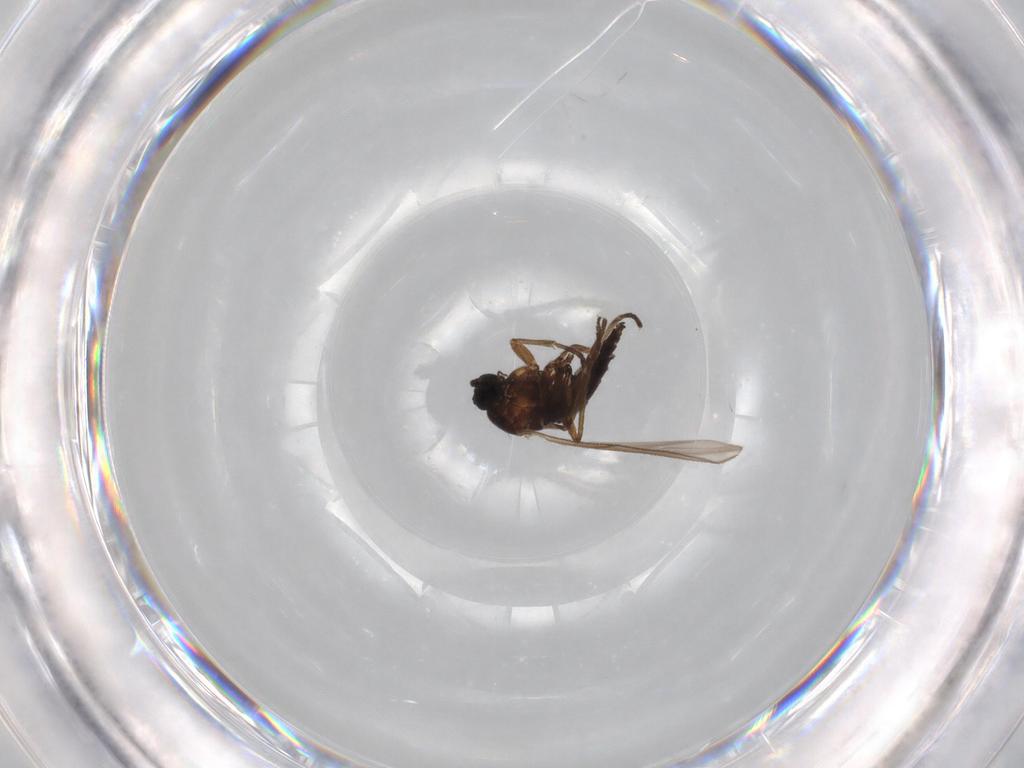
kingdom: Animalia
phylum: Arthropoda
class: Insecta
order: Diptera
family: Sciaridae
